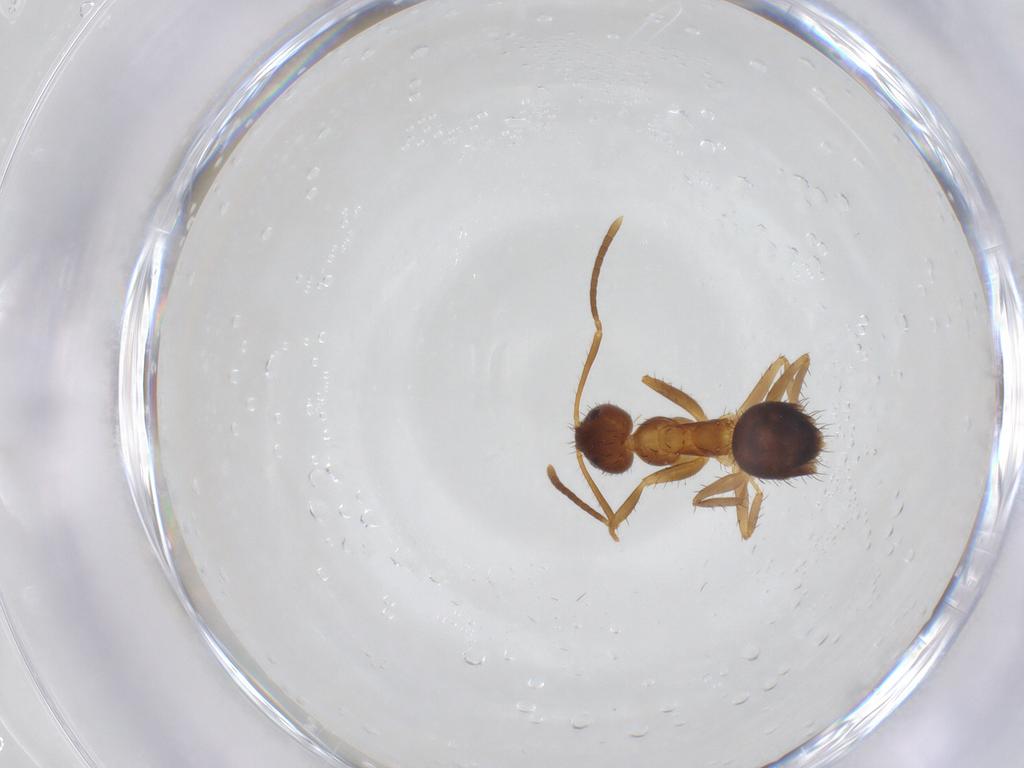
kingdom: Animalia
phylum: Arthropoda
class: Insecta
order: Hymenoptera
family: Formicidae
